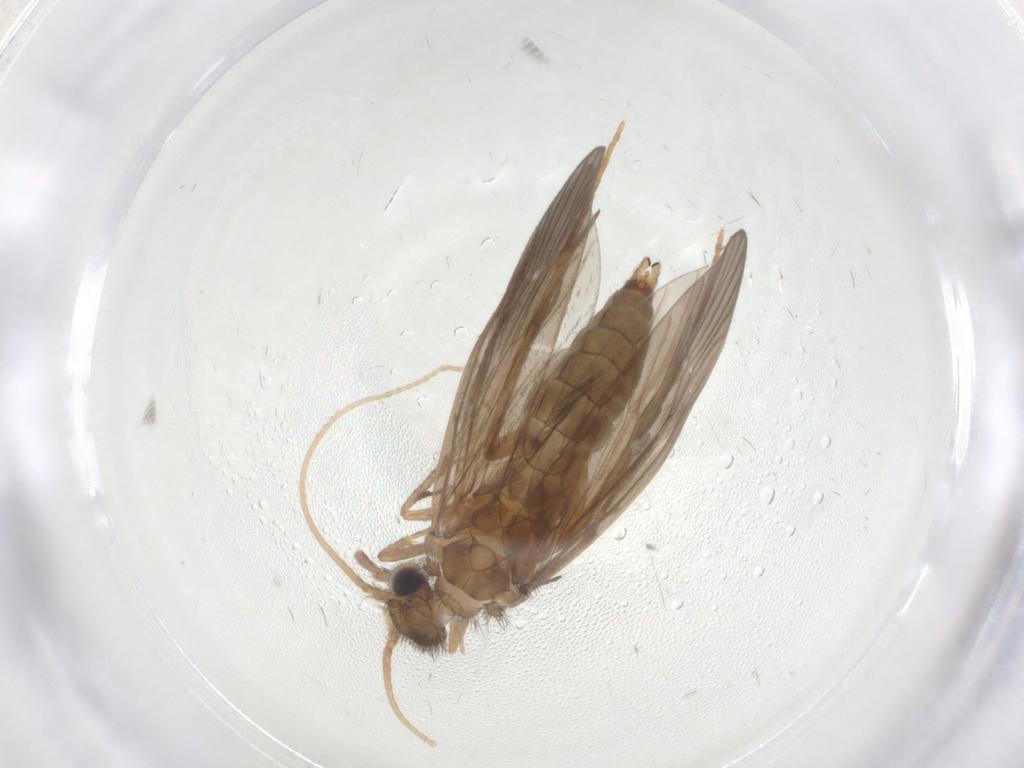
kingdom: Animalia
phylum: Arthropoda
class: Insecta
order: Trichoptera
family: Philopotamidae
